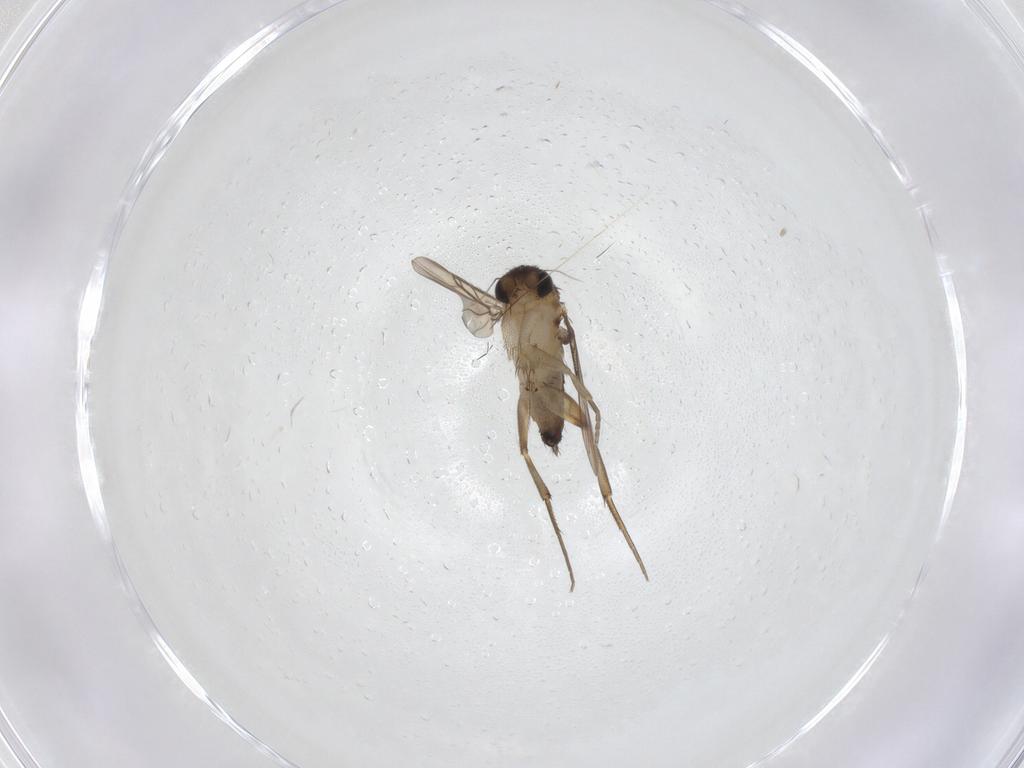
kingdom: Animalia
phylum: Arthropoda
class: Insecta
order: Diptera
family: Phoridae
